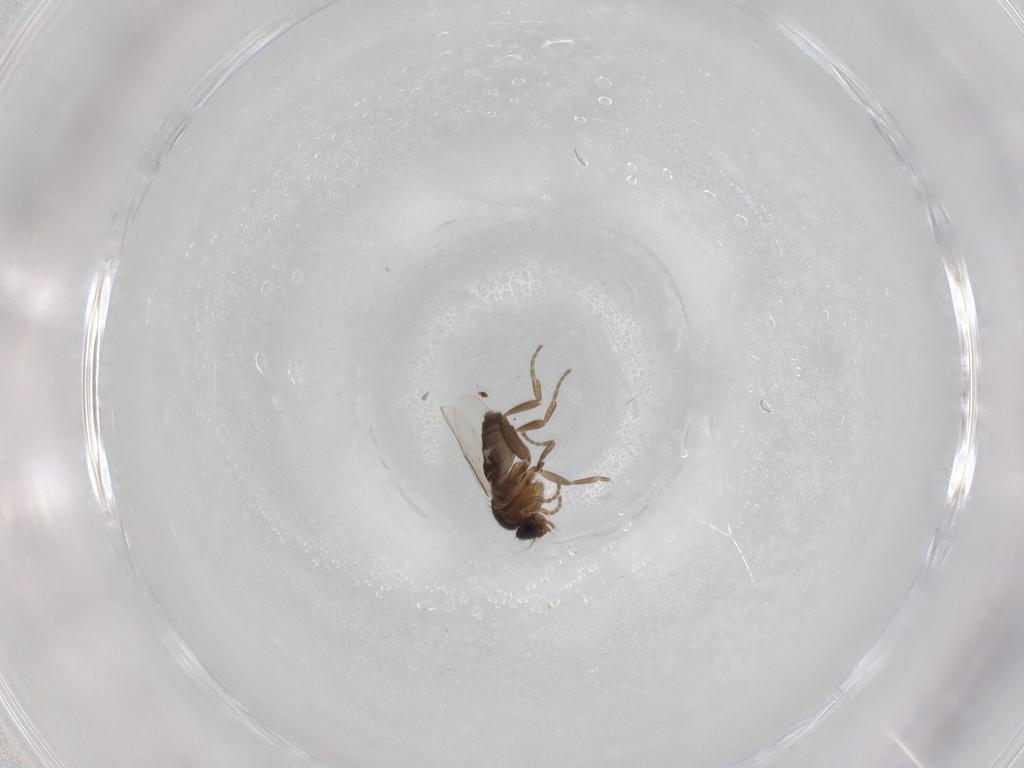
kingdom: Animalia
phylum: Arthropoda
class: Insecta
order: Diptera
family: Phoridae
